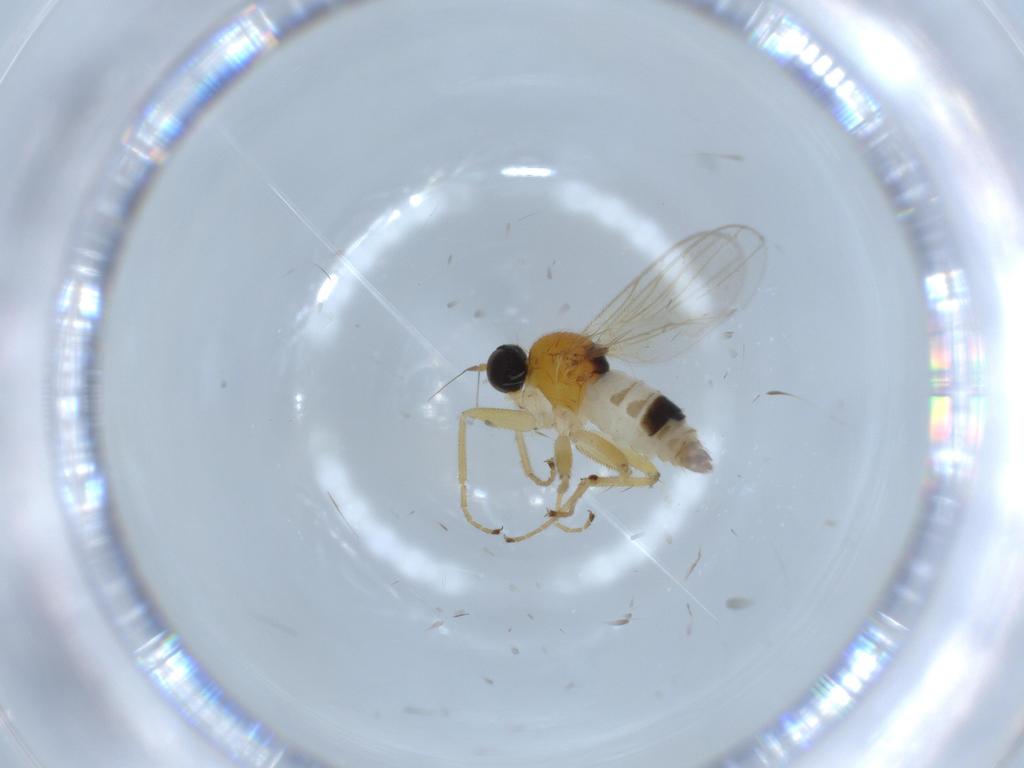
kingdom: Animalia
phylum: Arthropoda
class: Insecta
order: Diptera
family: Hybotidae
